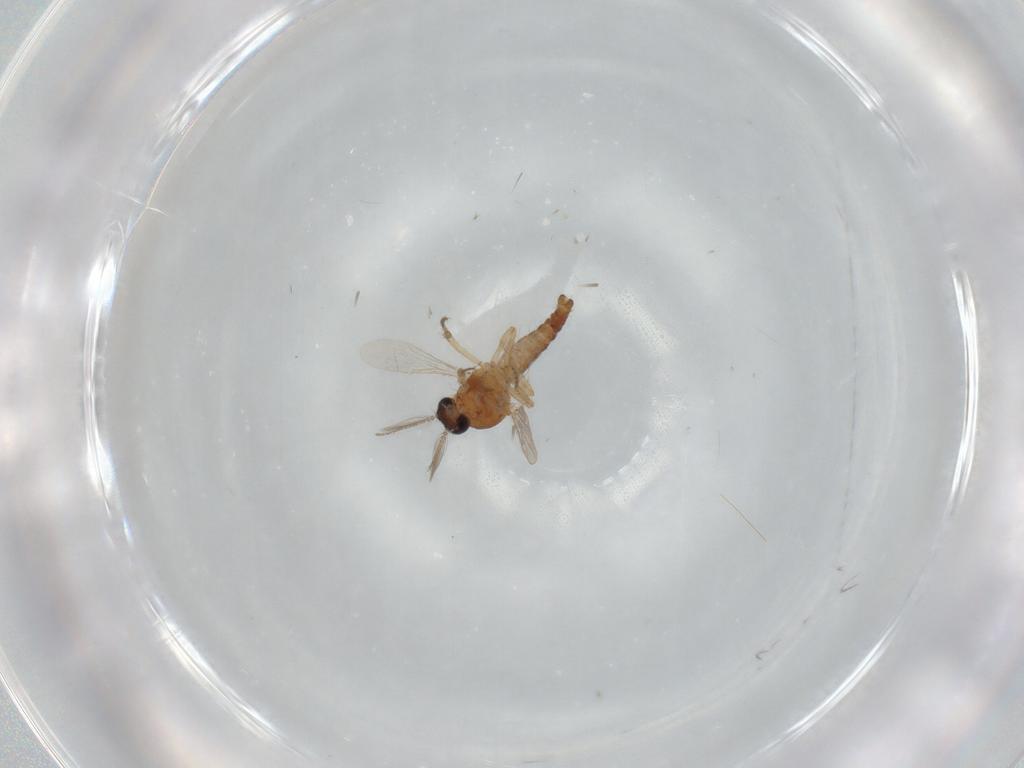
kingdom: Animalia
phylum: Arthropoda
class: Insecta
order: Diptera
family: Ceratopogonidae
